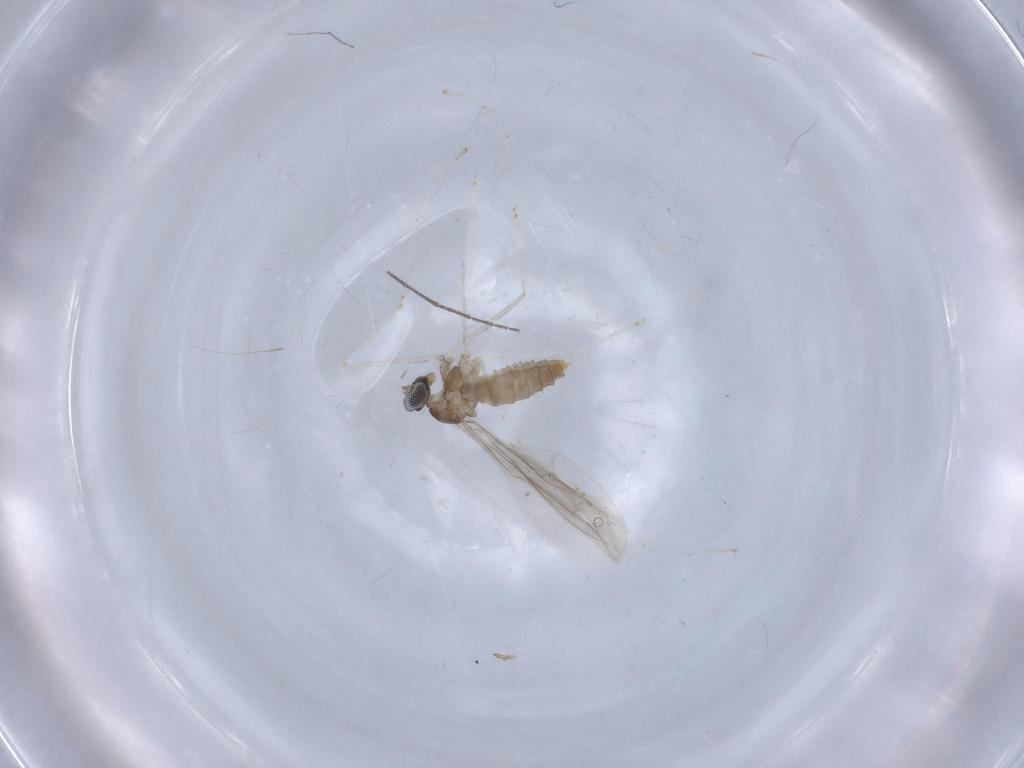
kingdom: Animalia
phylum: Arthropoda
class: Insecta
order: Diptera
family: Cecidomyiidae
